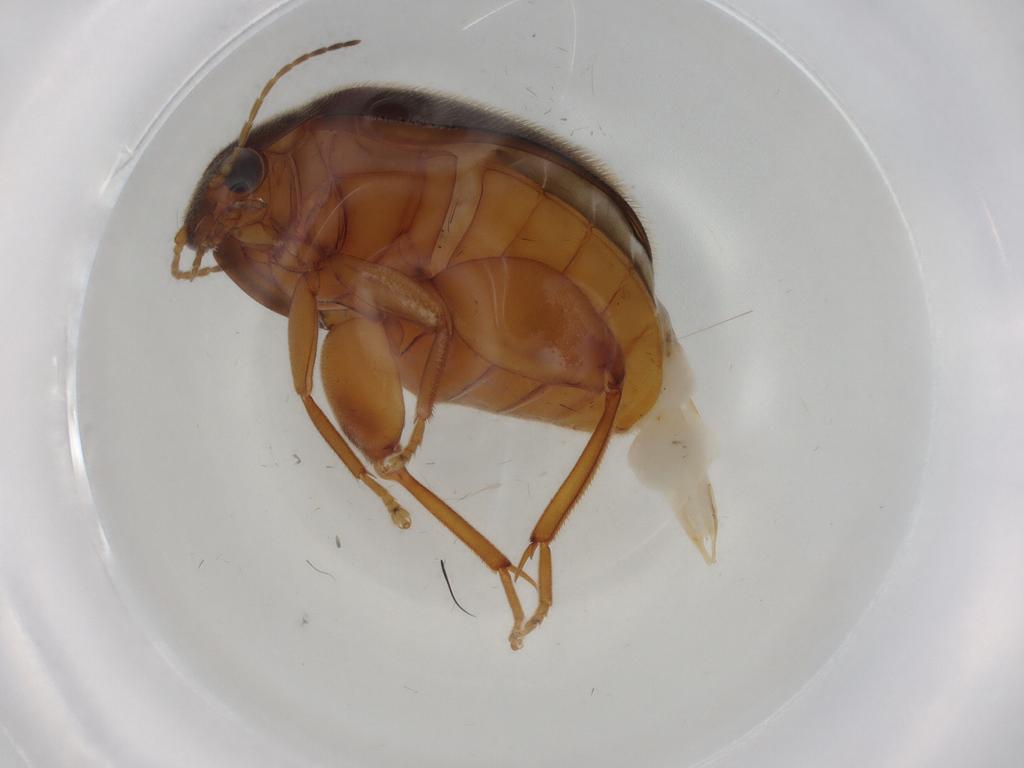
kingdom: Animalia
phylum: Arthropoda
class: Insecta
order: Coleoptera
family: Scirtidae
